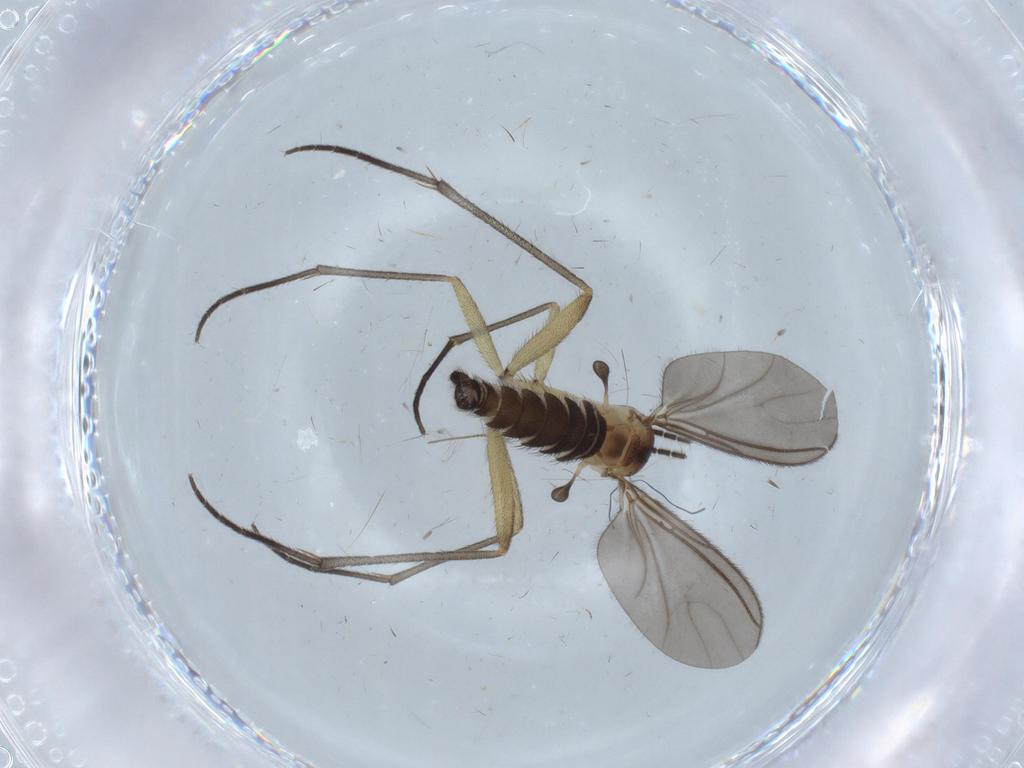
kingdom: Animalia
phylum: Arthropoda
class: Insecta
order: Diptera
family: Sciaridae
